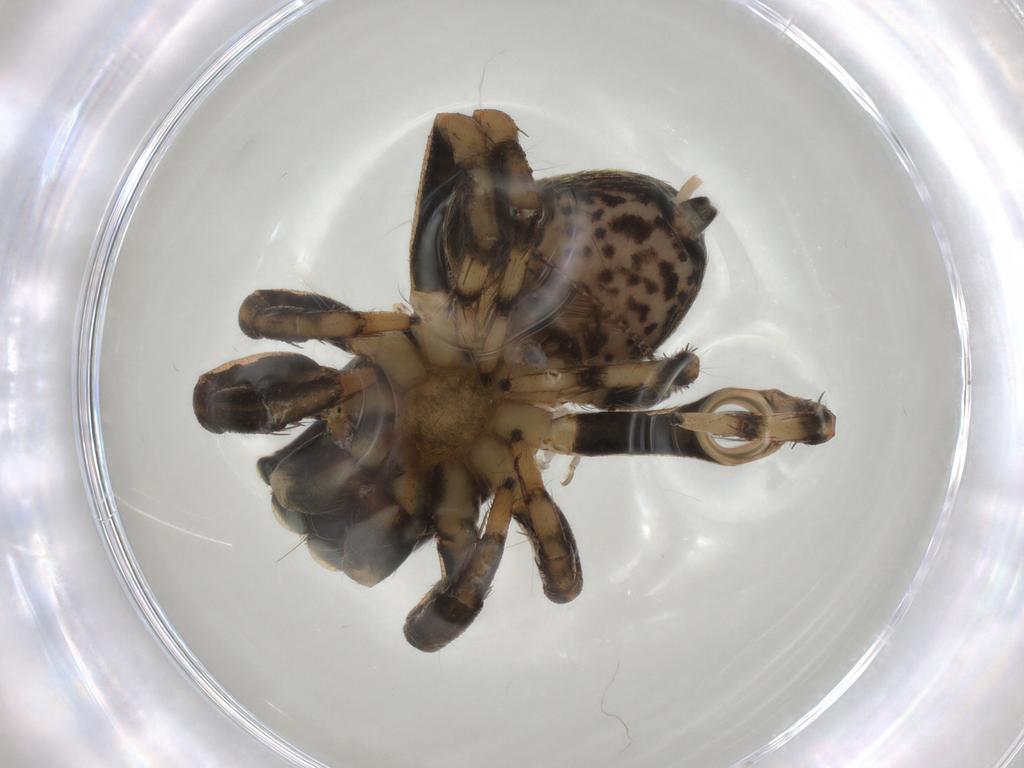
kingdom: Animalia
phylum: Arthropoda
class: Arachnida
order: Araneae
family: Salticidae
